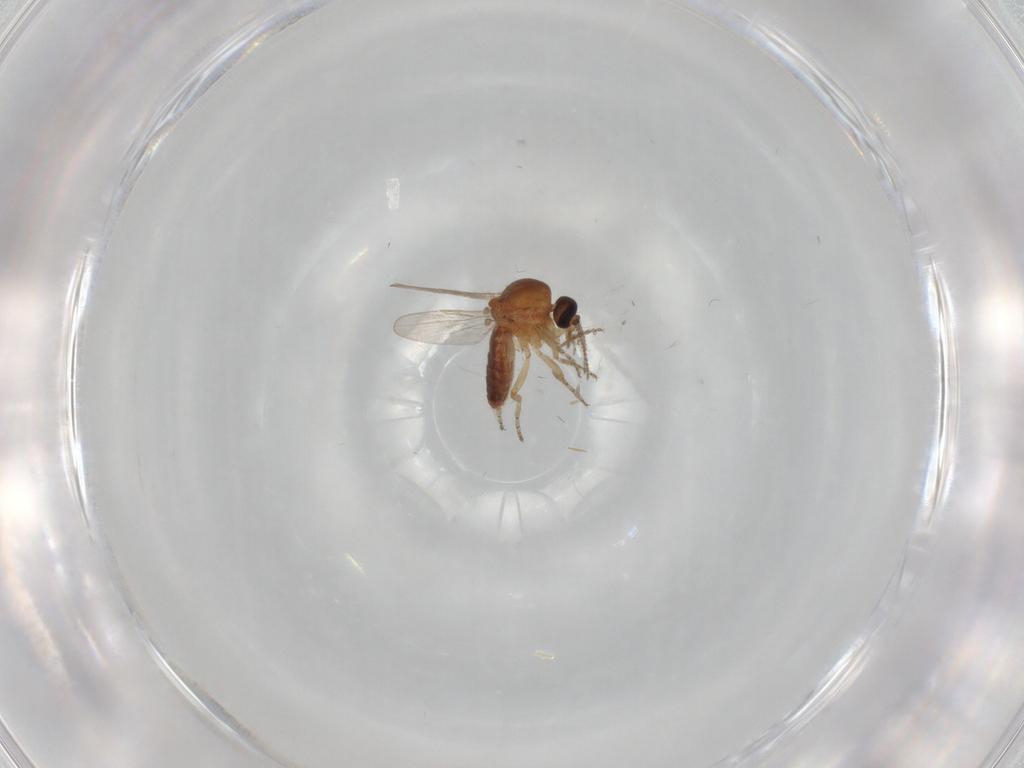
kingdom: Animalia
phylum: Arthropoda
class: Insecta
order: Diptera
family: Ceratopogonidae
